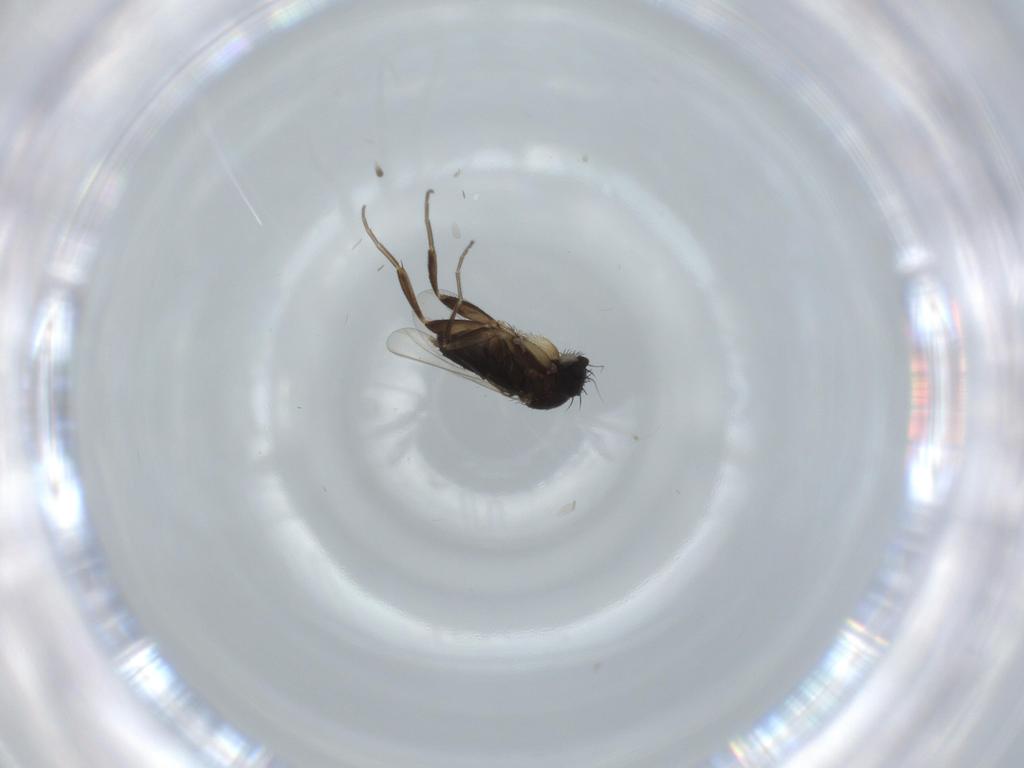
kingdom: Animalia
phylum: Arthropoda
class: Insecta
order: Diptera
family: Phoridae
